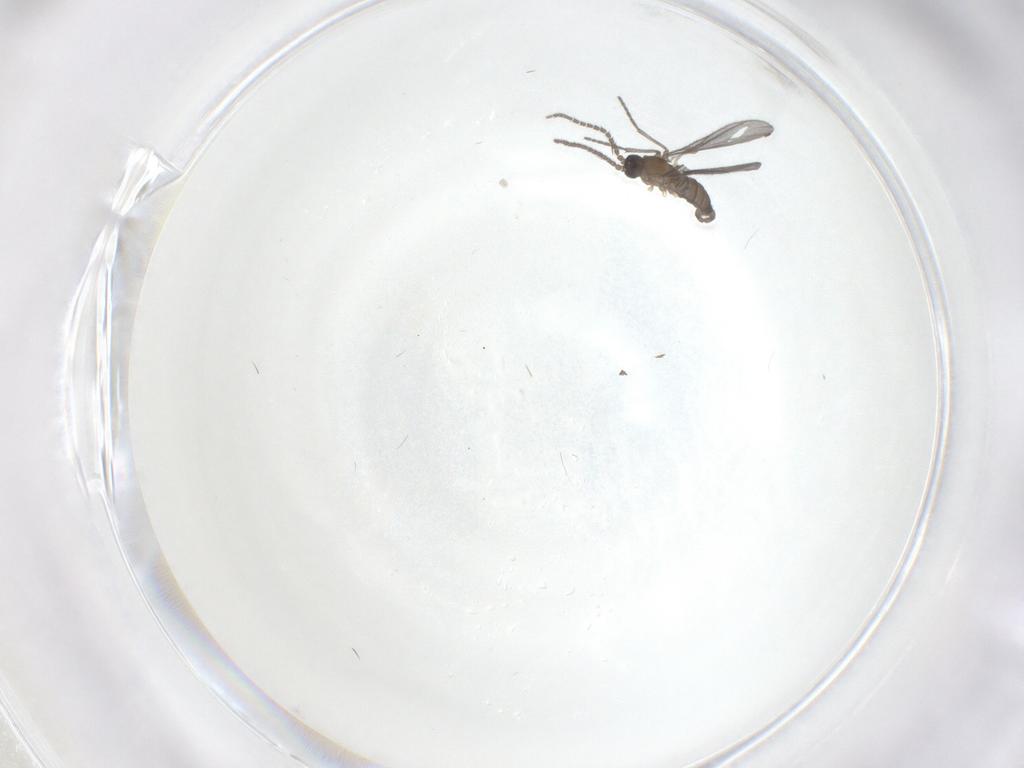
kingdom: Animalia
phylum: Arthropoda
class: Insecta
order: Diptera
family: Sciaridae
